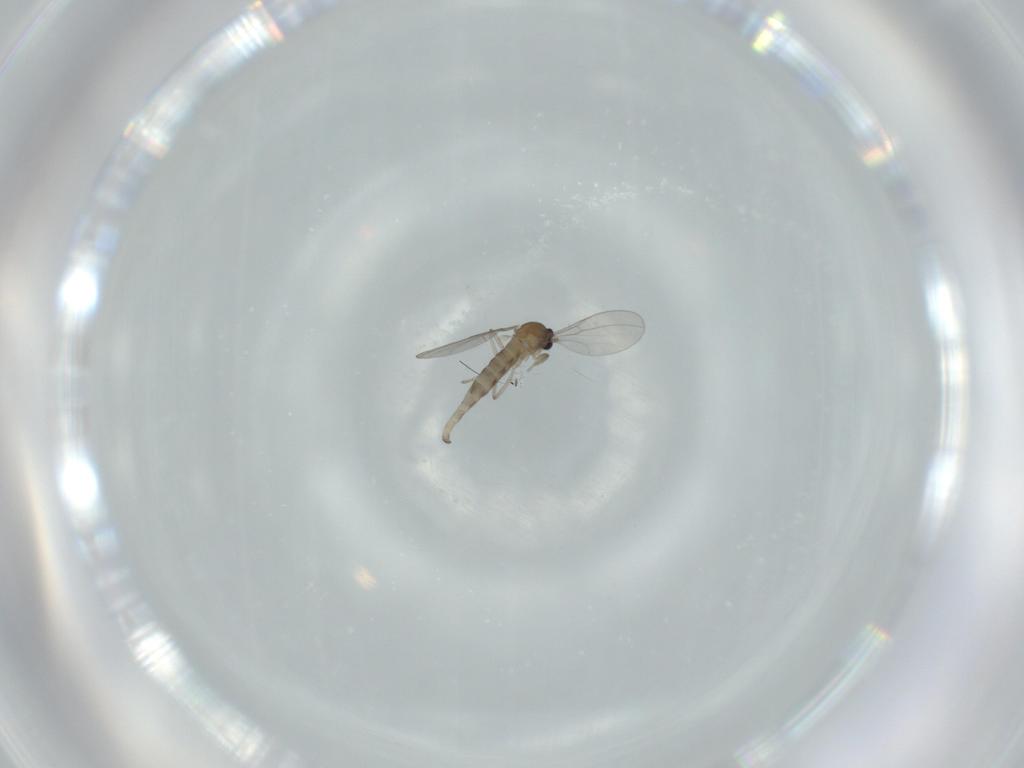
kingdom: Animalia
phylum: Arthropoda
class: Insecta
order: Diptera
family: Cecidomyiidae
